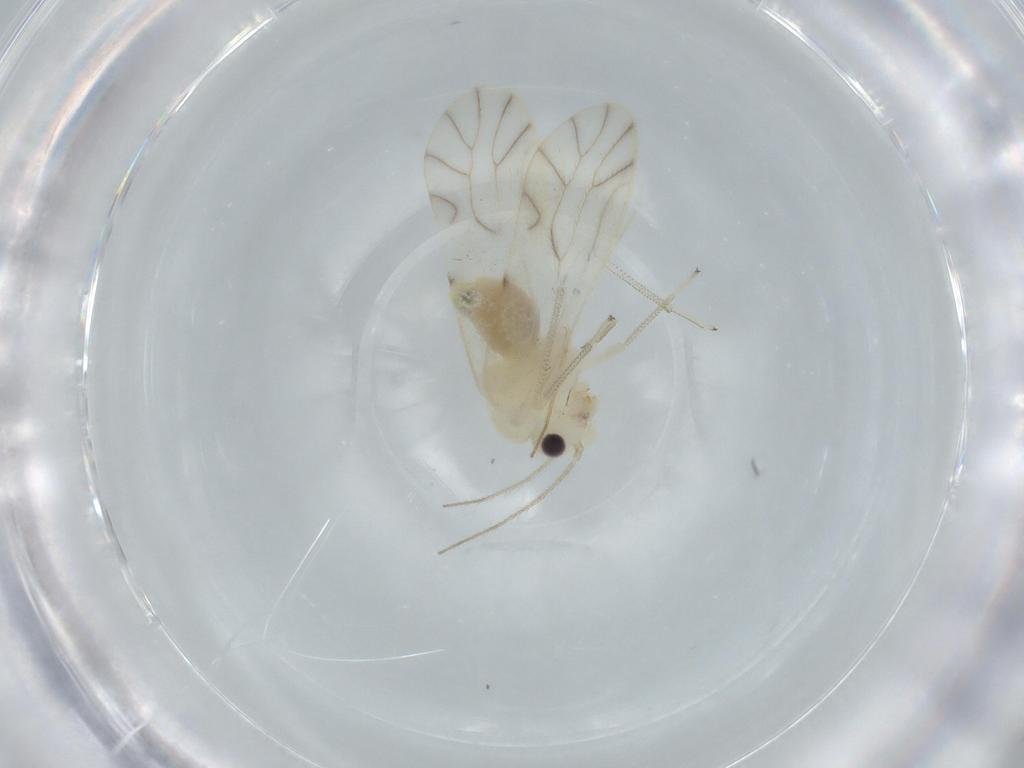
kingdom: Animalia
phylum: Arthropoda
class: Insecta
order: Psocodea
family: Caeciliusidae
